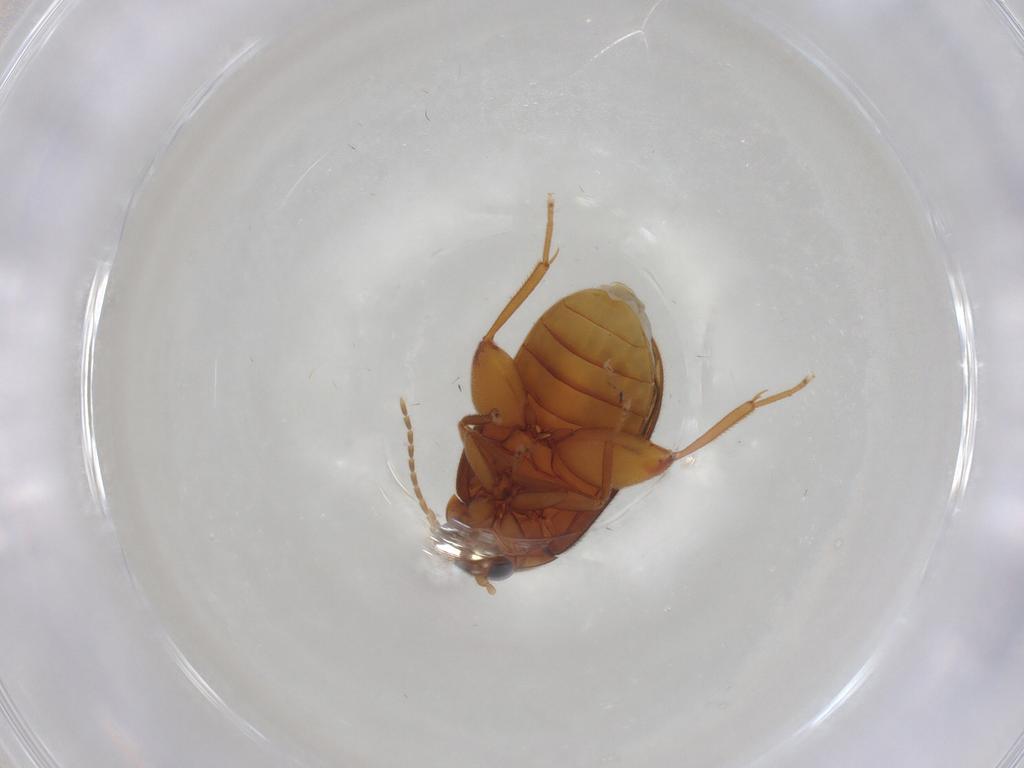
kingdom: Animalia
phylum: Arthropoda
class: Insecta
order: Coleoptera
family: Scirtidae
